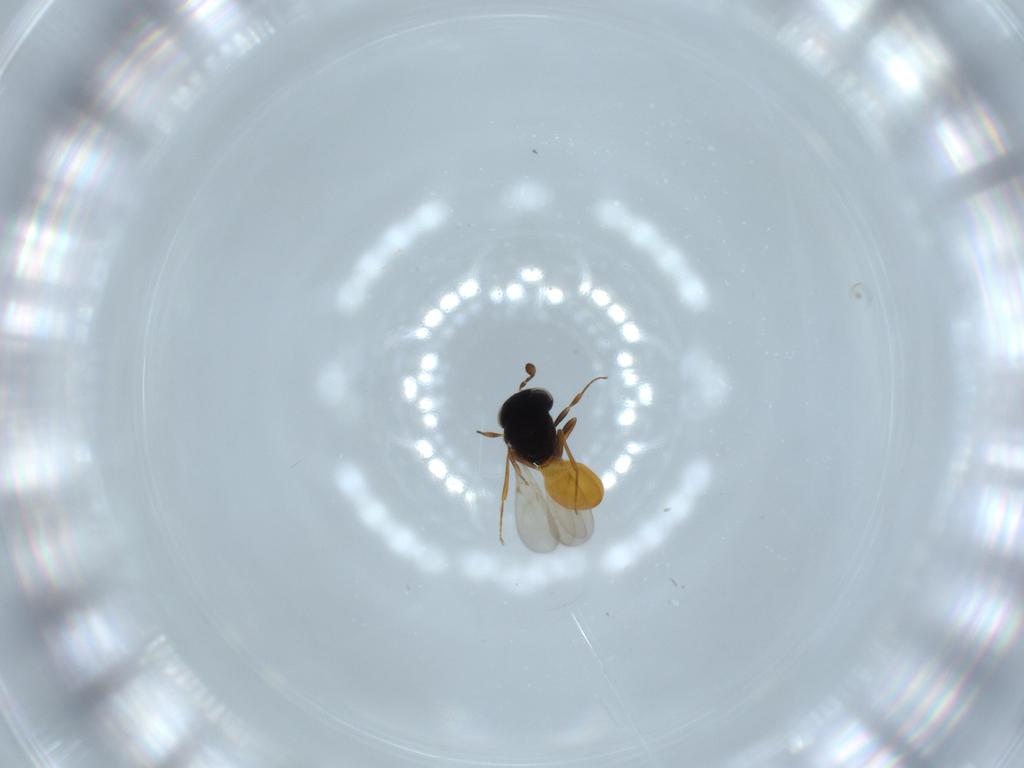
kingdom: Animalia
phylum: Arthropoda
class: Insecta
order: Hymenoptera
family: Scelionidae
